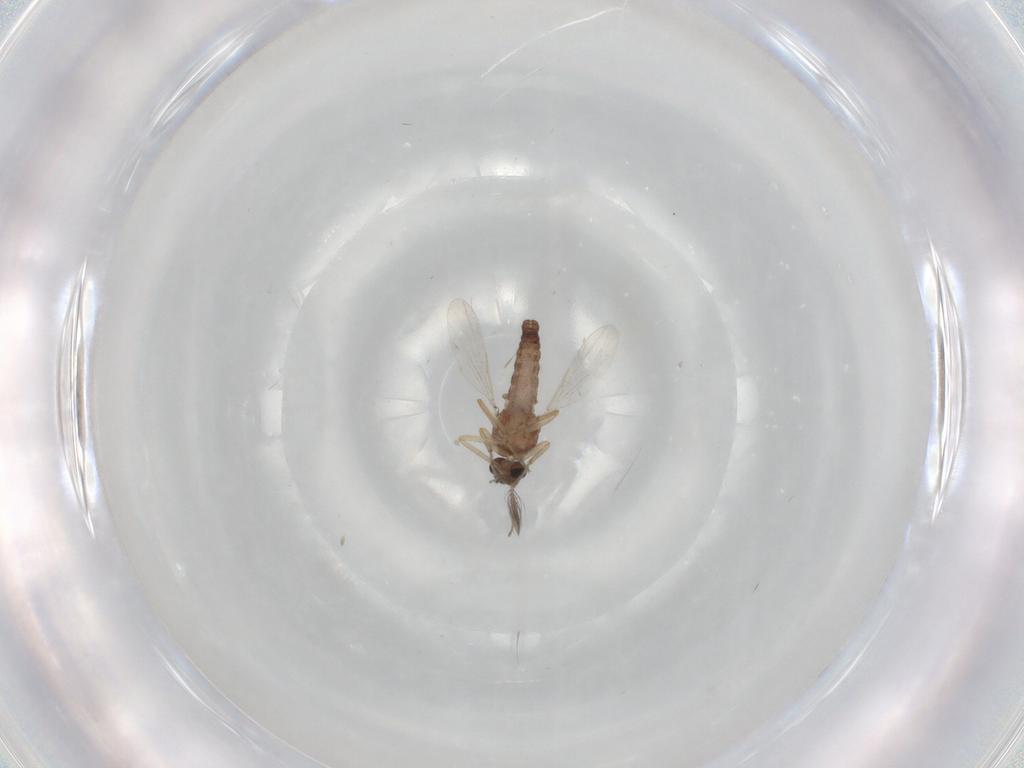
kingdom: Animalia
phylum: Arthropoda
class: Insecta
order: Diptera
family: Ceratopogonidae
